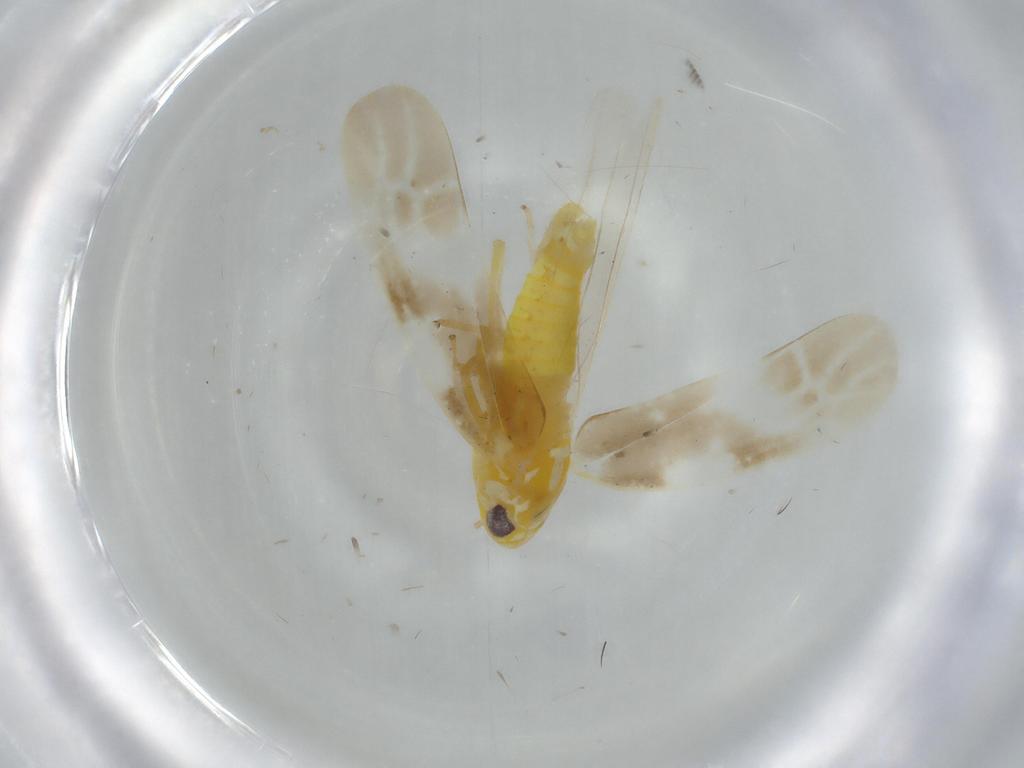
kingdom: Animalia
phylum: Arthropoda
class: Insecta
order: Hemiptera
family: Cicadellidae
